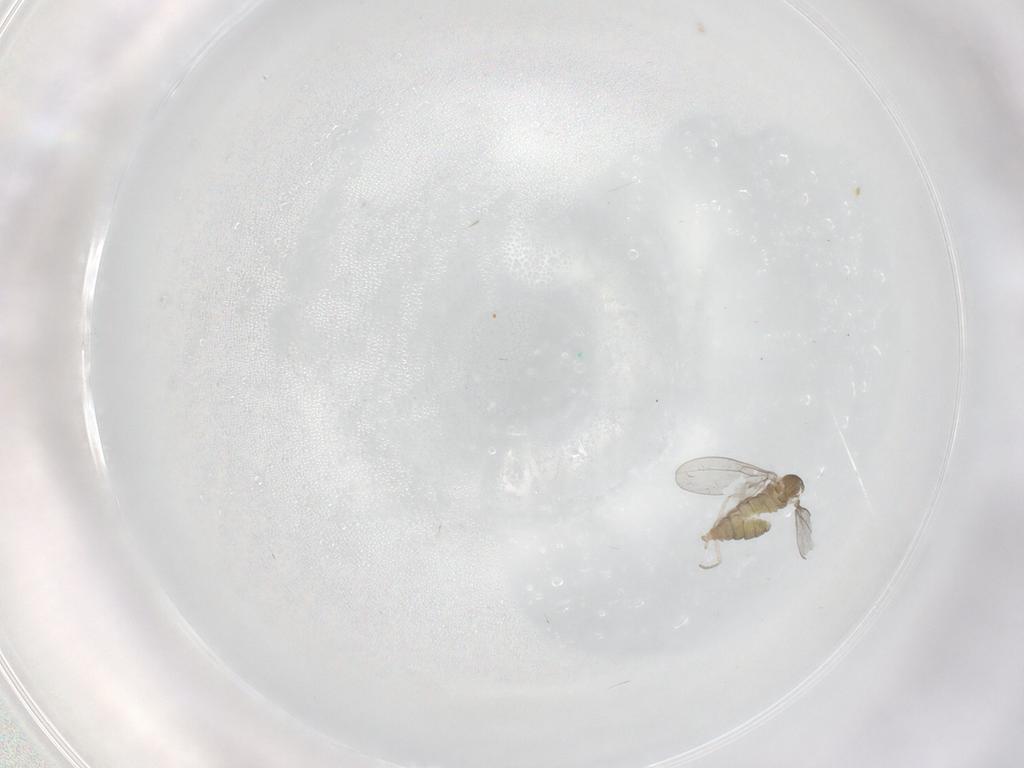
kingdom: Animalia
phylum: Arthropoda
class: Insecta
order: Diptera
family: Cecidomyiidae
